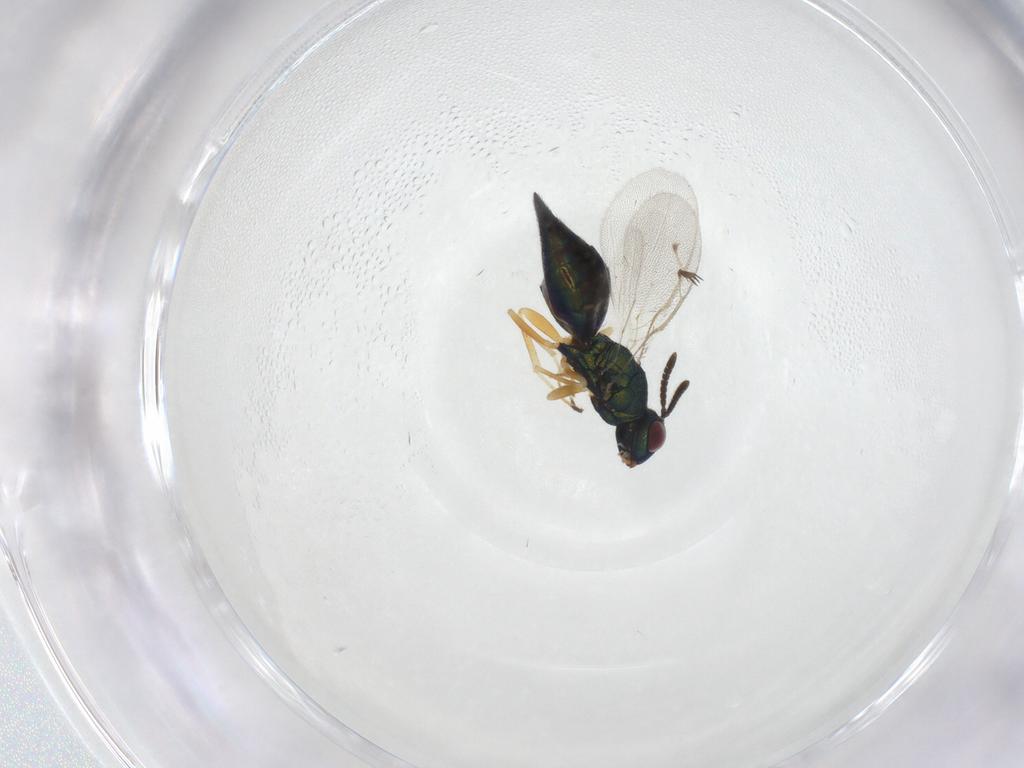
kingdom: Animalia
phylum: Arthropoda
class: Insecta
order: Hymenoptera
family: Pteromalidae
